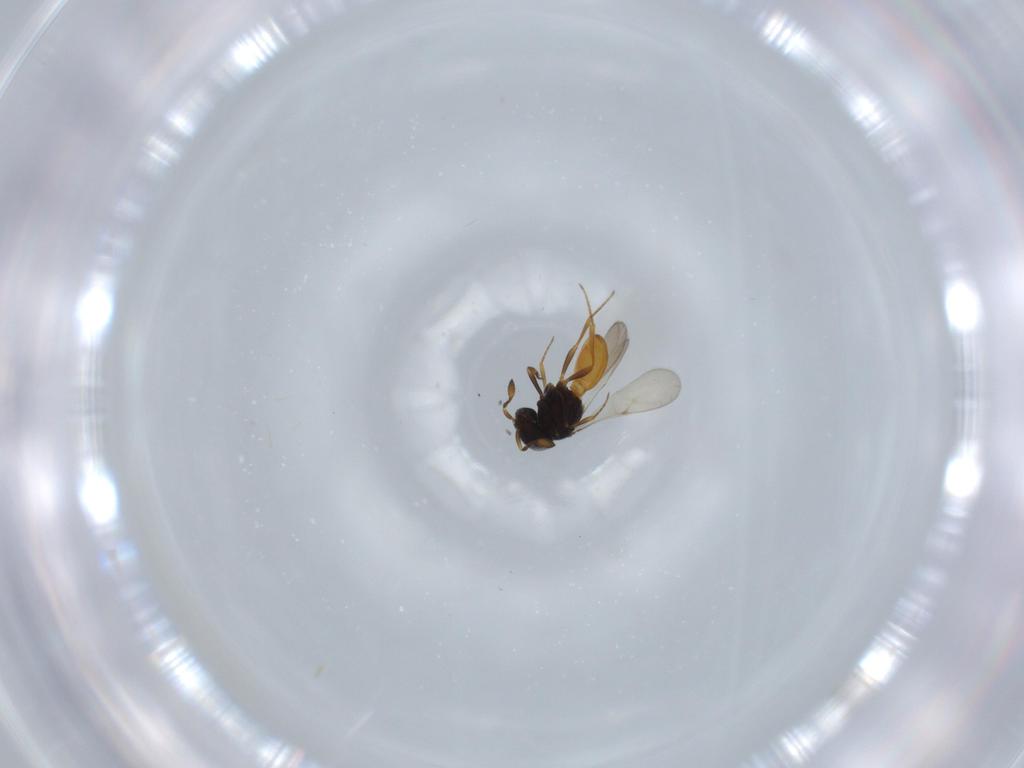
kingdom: Animalia
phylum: Arthropoda
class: Insecta
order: Hymenoptera
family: Scelionidae
